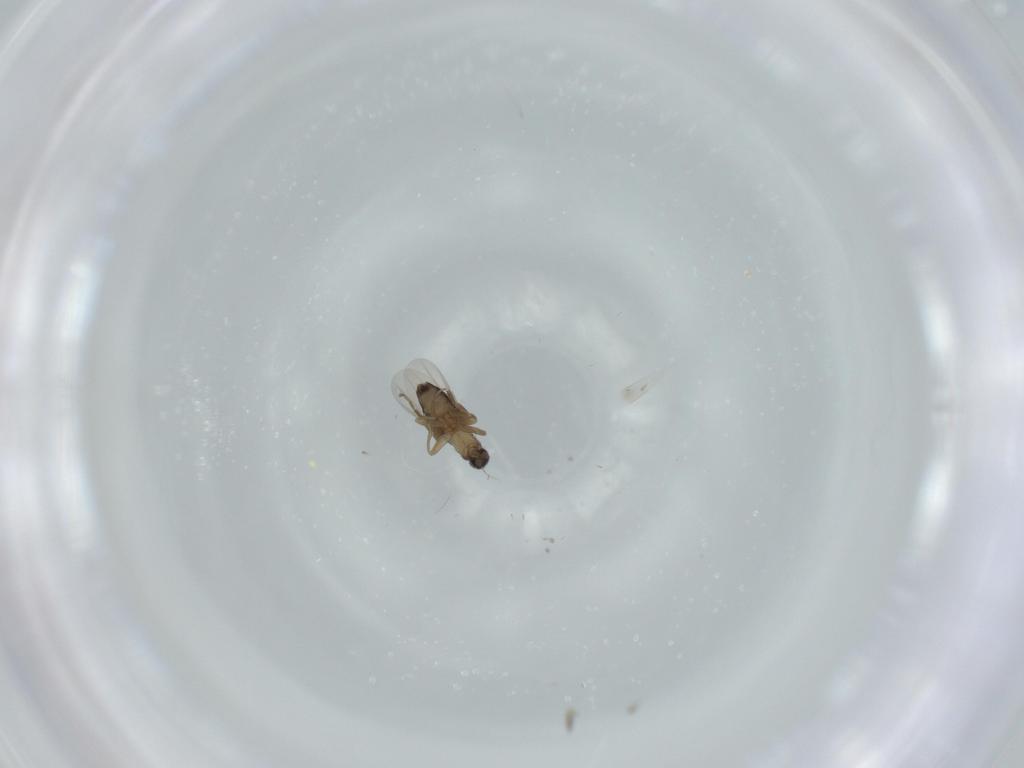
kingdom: Animalia
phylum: Arthropoda
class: Insecta
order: Diptera
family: Phoridae
